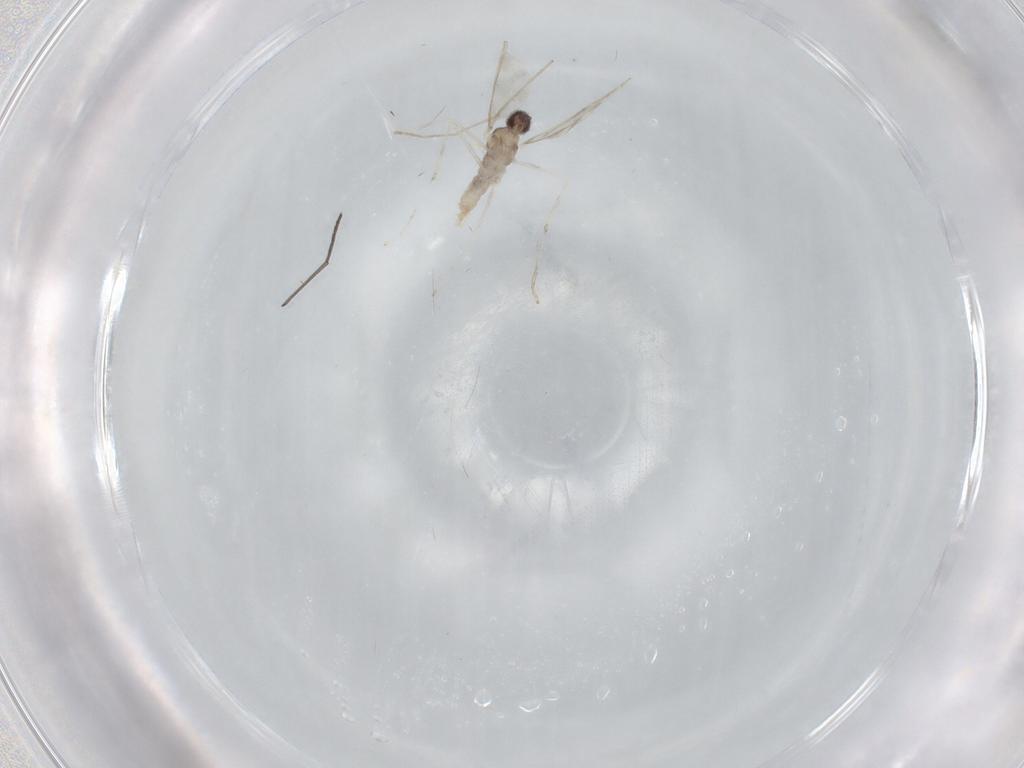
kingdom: Animalia
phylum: Arthropoda
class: Insecta
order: Diptera
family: Cecidomyiidae
